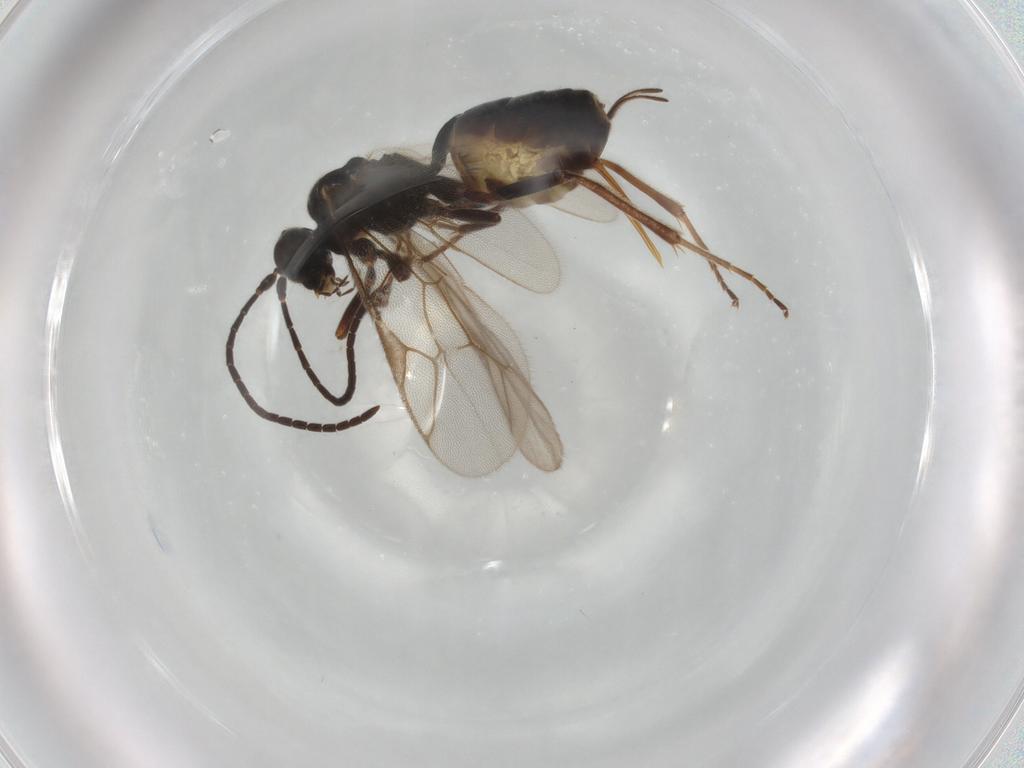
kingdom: Animalia
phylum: Arthropoda
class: Insecta
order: Hymenoptera
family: Ichneumonidae
